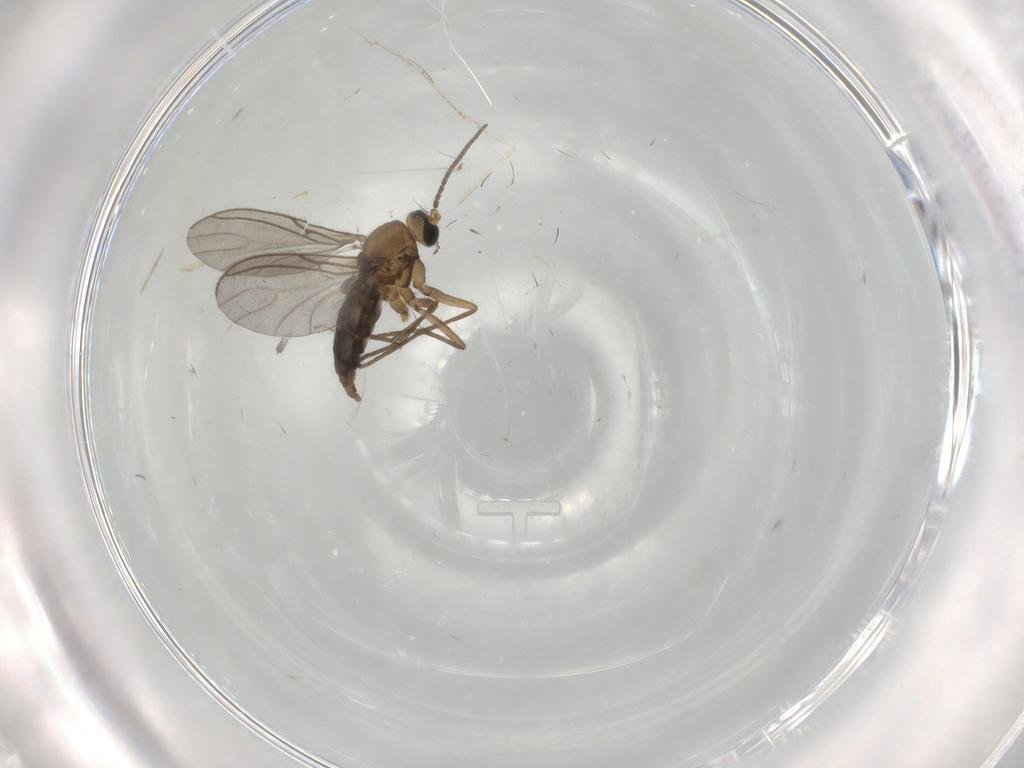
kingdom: Animalia
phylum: Arthropoda
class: Insecta
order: Diptera
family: Sciaridae
